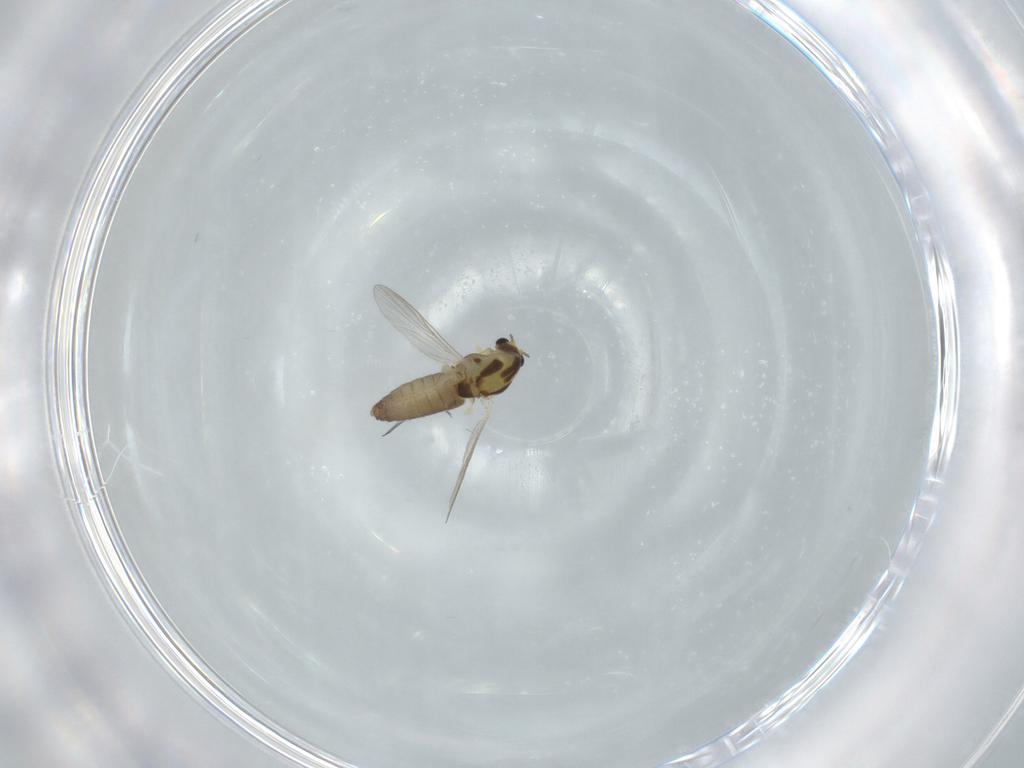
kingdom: Animalia
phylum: Arthropoda
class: Insecta
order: Diptera
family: Chironomidae
